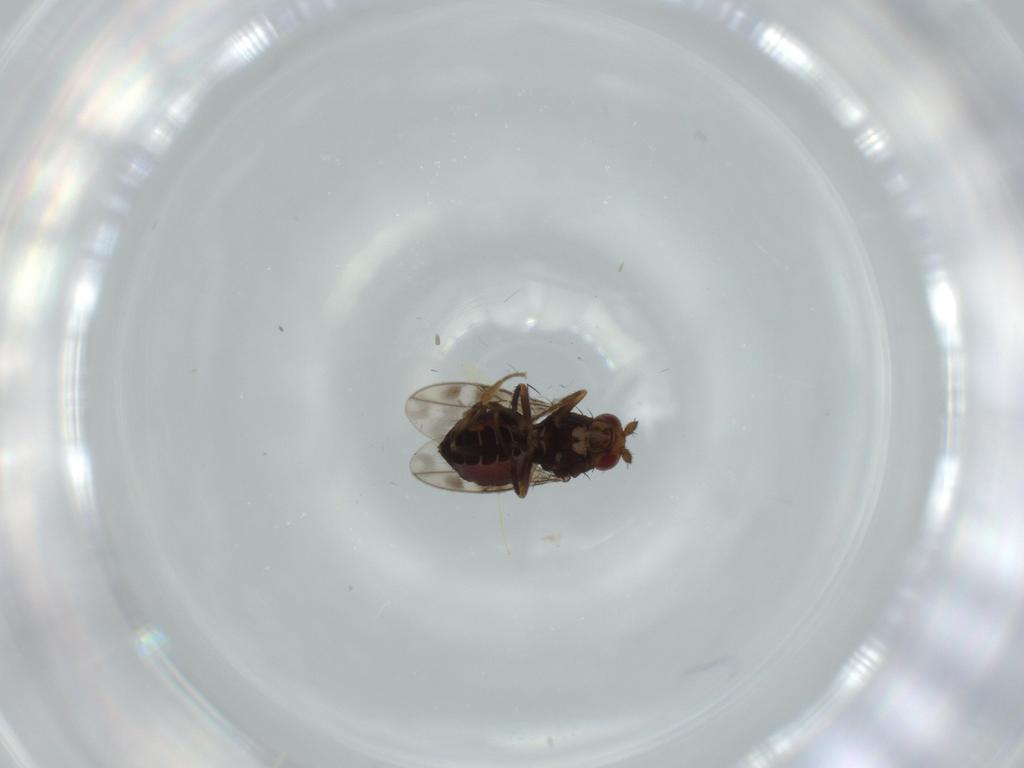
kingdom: Animalia
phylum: Arthropoda
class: Insecta
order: Diptera
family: Sphaeroceridae
